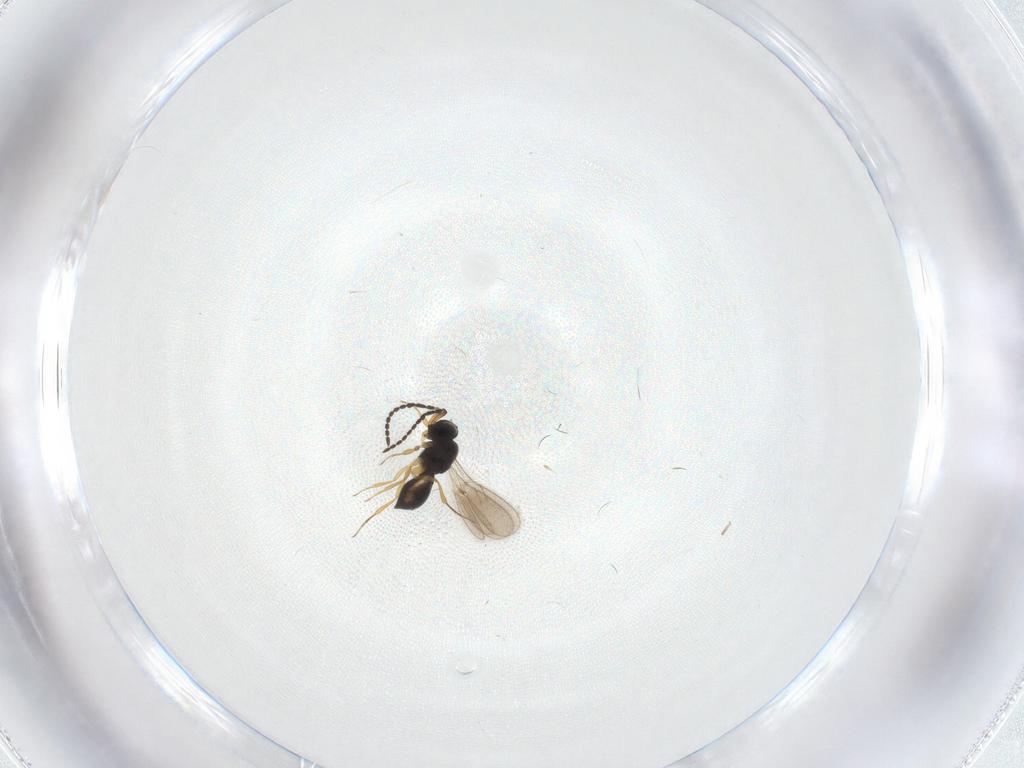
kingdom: Animalia
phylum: Arthropoda
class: Insecta
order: Hymenoptera
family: Scelionidae
